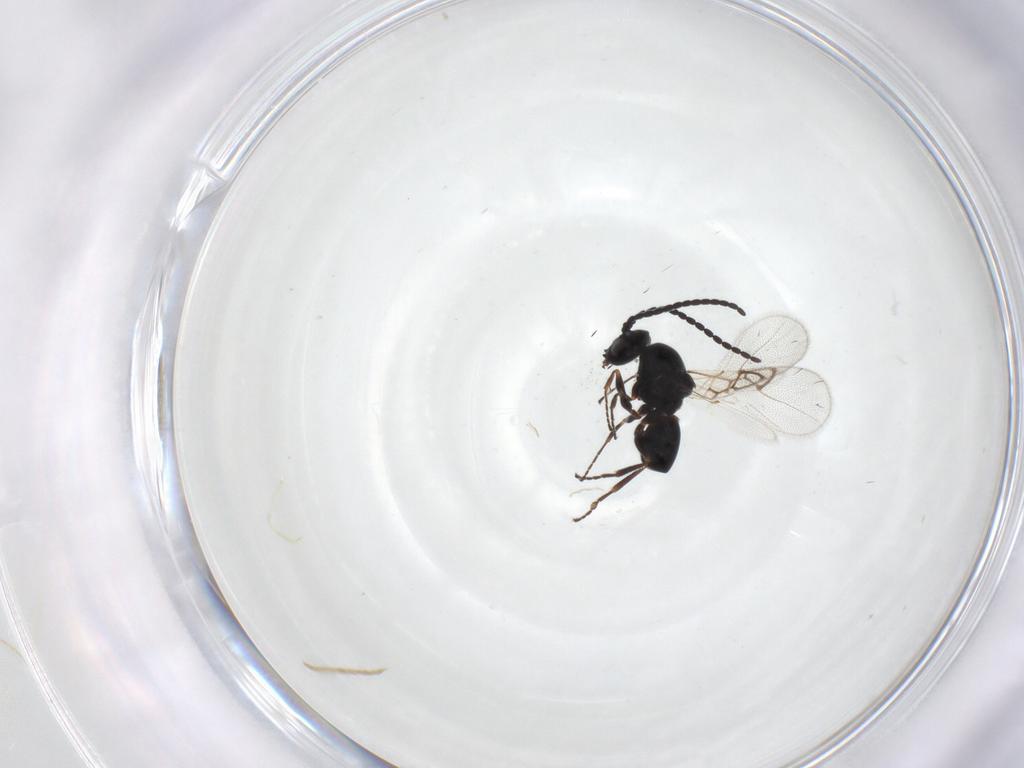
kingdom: Animalia
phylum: Arthropoda
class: Insecta
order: Hymenoptera
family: Figitidae
